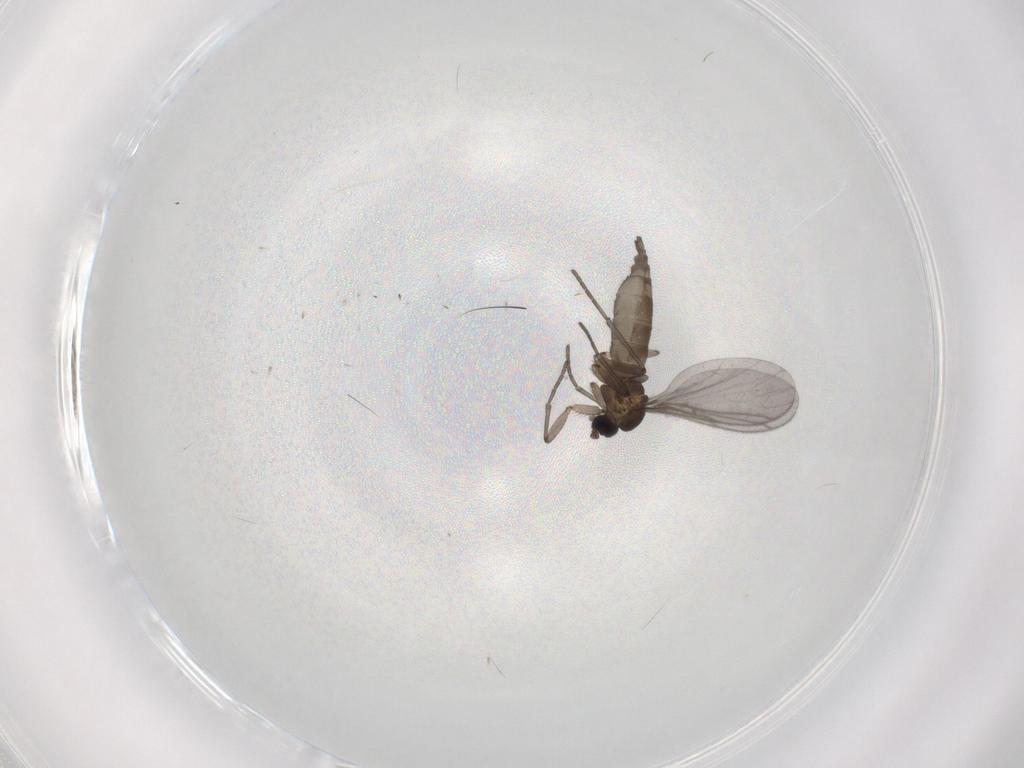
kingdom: Animalia
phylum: Arthropoda
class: Insecta
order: Diptera
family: Sciaridae
